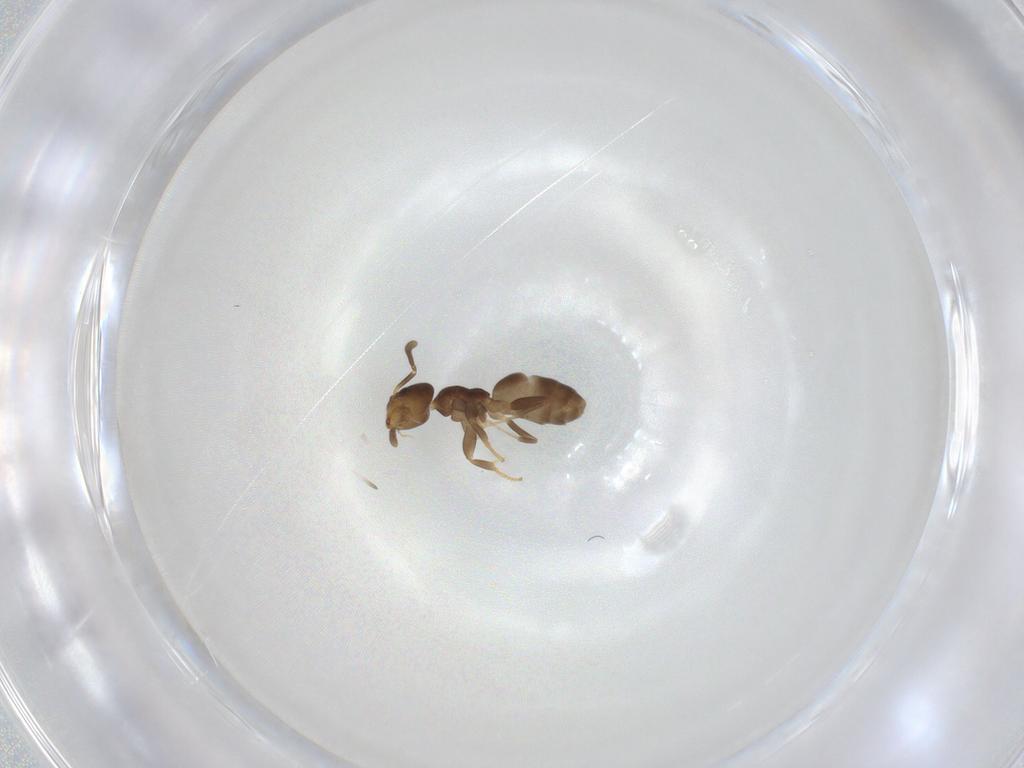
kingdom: Animalia
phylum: Arthropoda
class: Insecta
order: Hymenoptera
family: Formicidae
